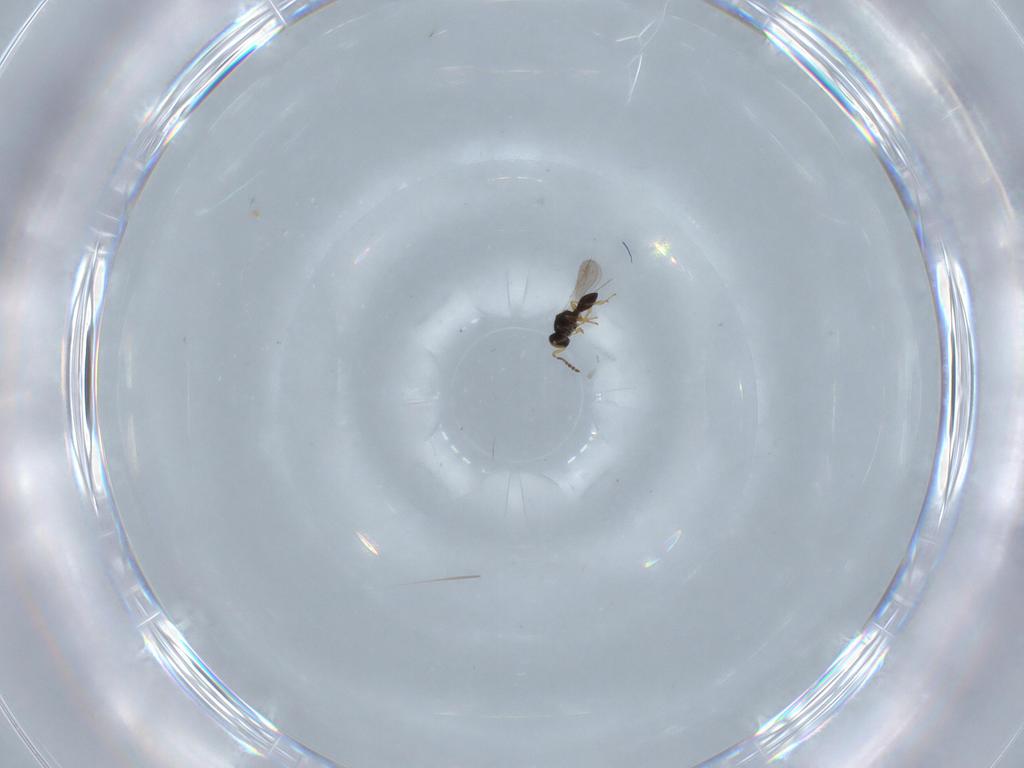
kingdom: Animalia
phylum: Arthropoda
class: Insecta
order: Hymenoptera
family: Platygastridae
